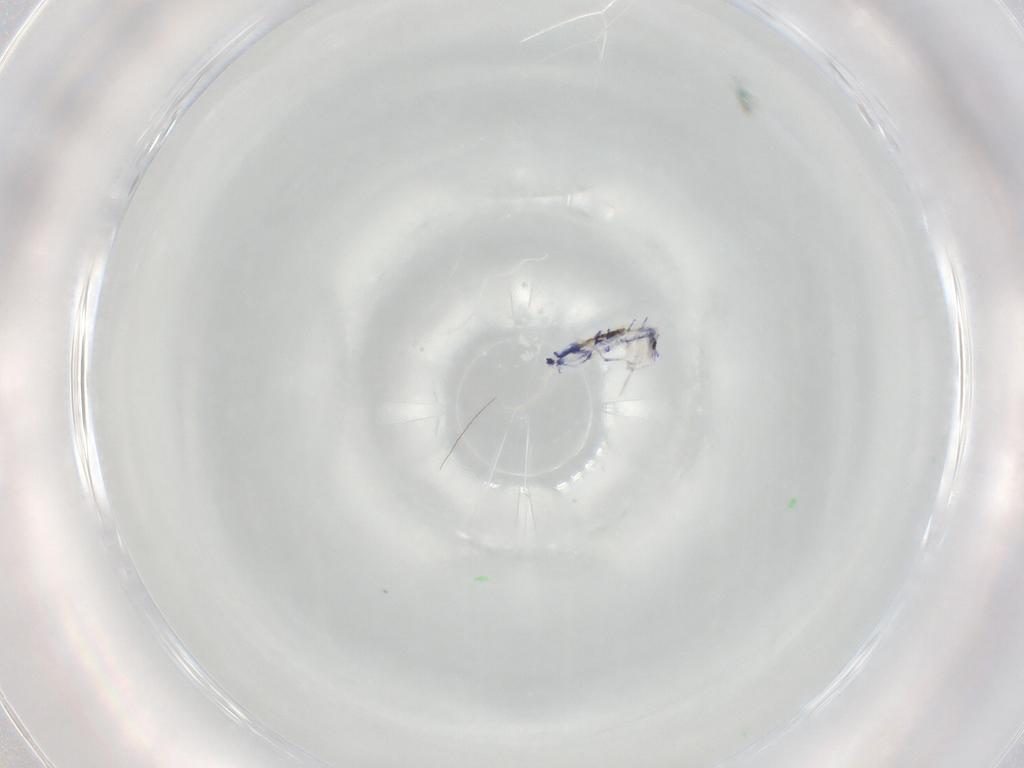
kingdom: Animalia
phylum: Arthropoda
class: Collembola
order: Entomobryomorpha
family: Entomobryidae
